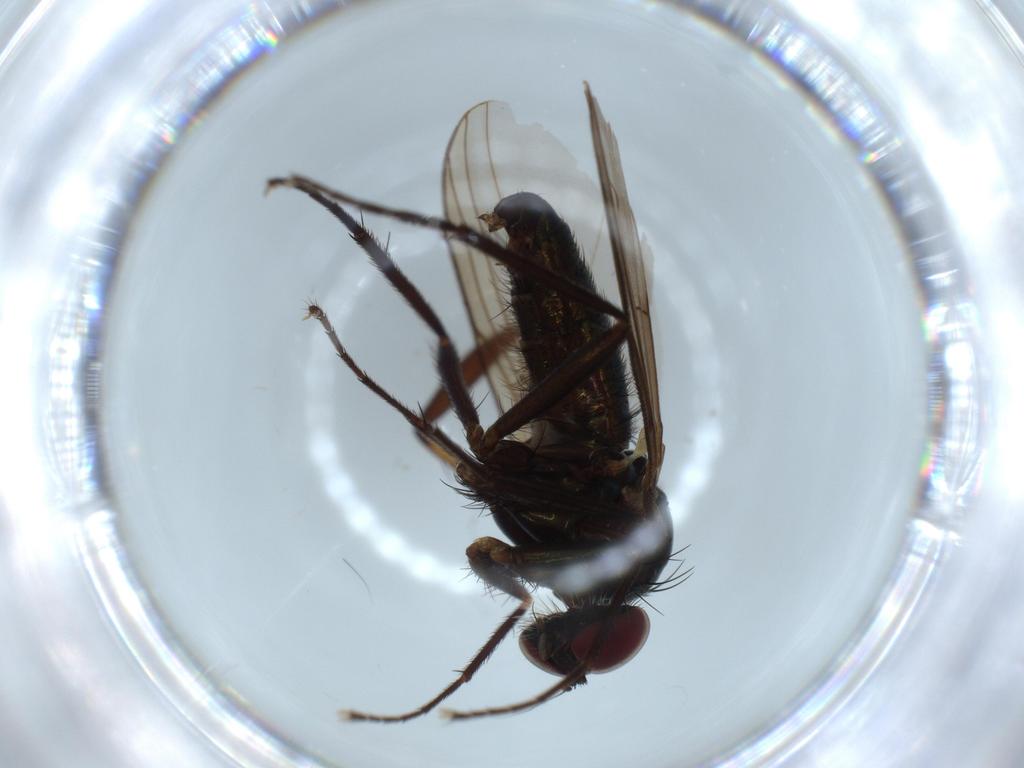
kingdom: Animalia
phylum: Arthropoda
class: Insecta
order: Diptera
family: Dolichopodidae
